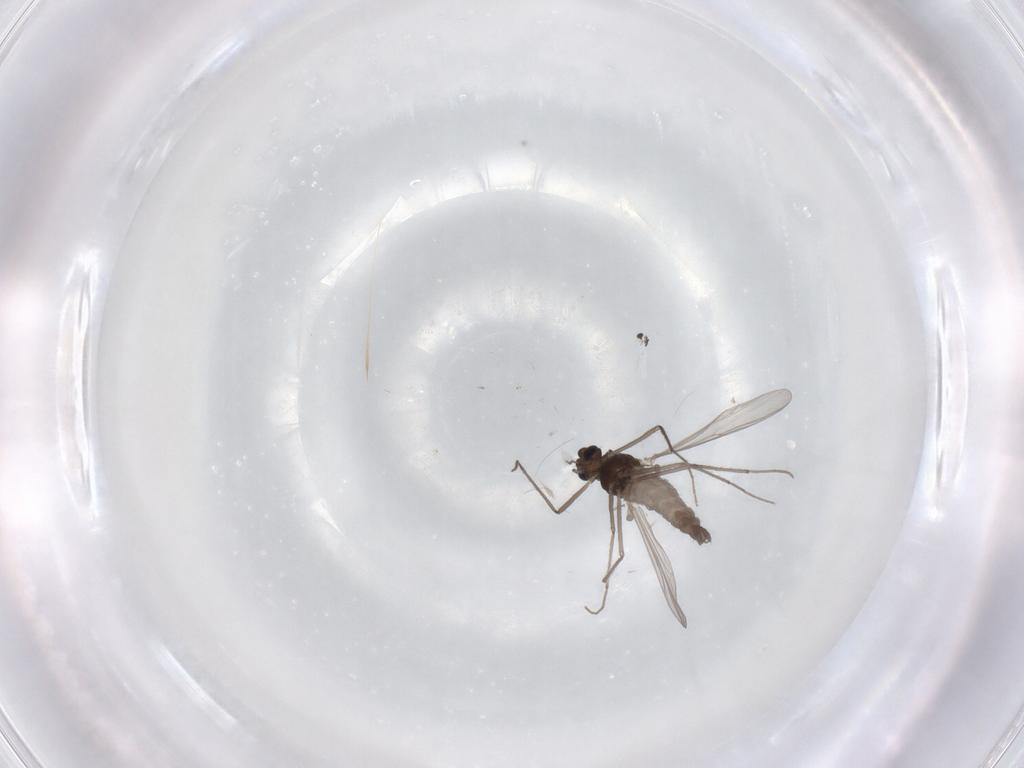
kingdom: Animalia
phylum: Arthropoda
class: Insecta
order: Diptera
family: Chironomidae
